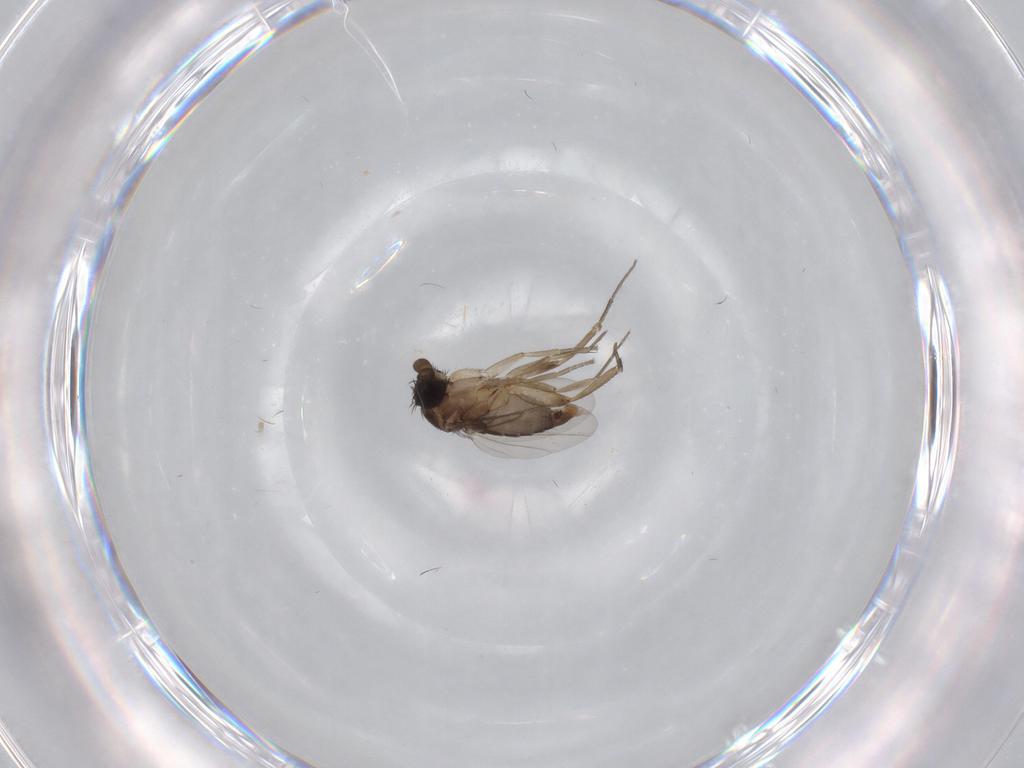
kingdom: Animalia
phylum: Arthropoda
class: Insecta
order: Diptera
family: Phoridae
